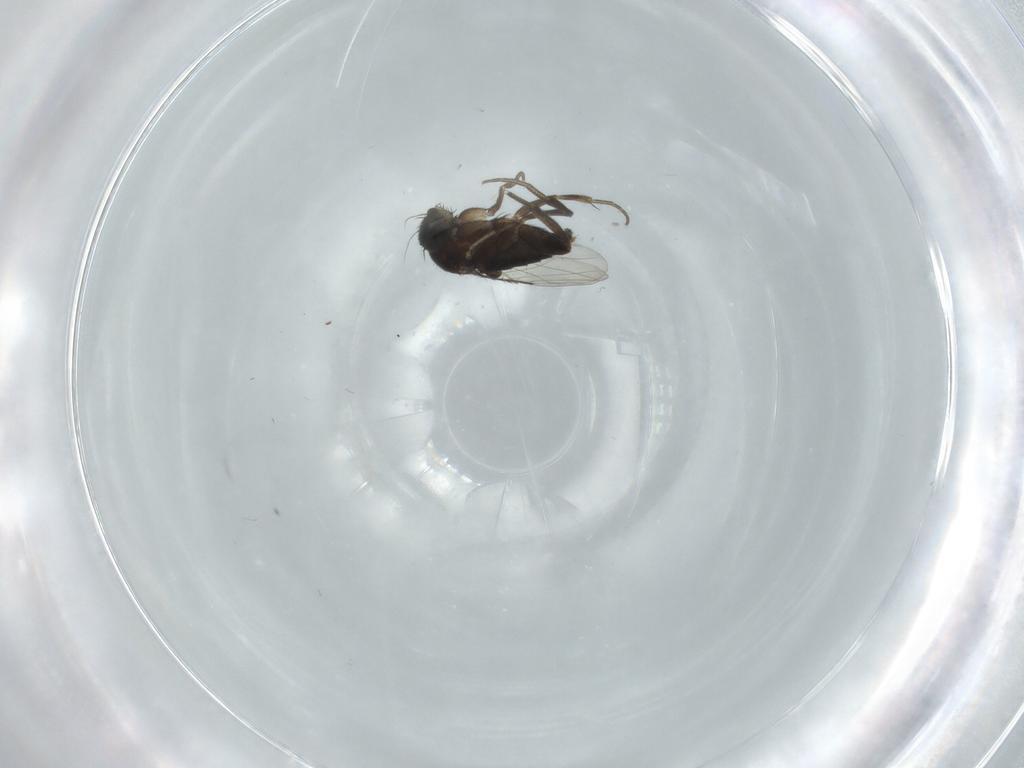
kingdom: Animalia
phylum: Arthropoda
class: Insecta
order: Diptera
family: Phoridae
